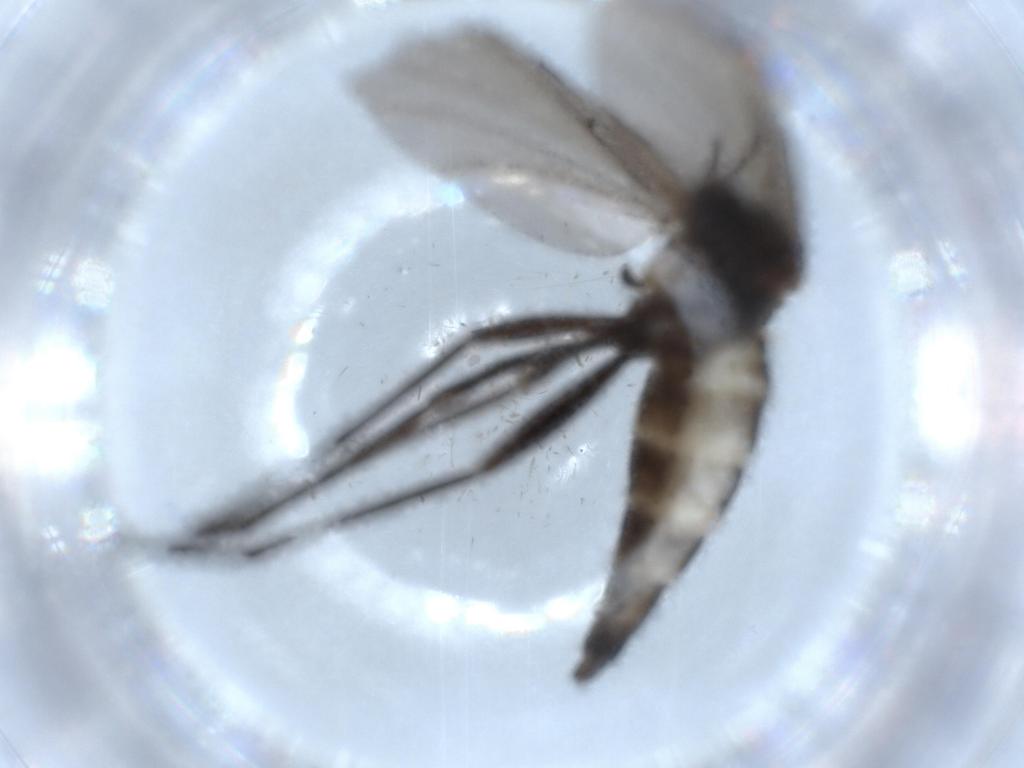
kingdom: Animalia
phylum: Arthropoda
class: Insecta
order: Diptera
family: Sciaridae
